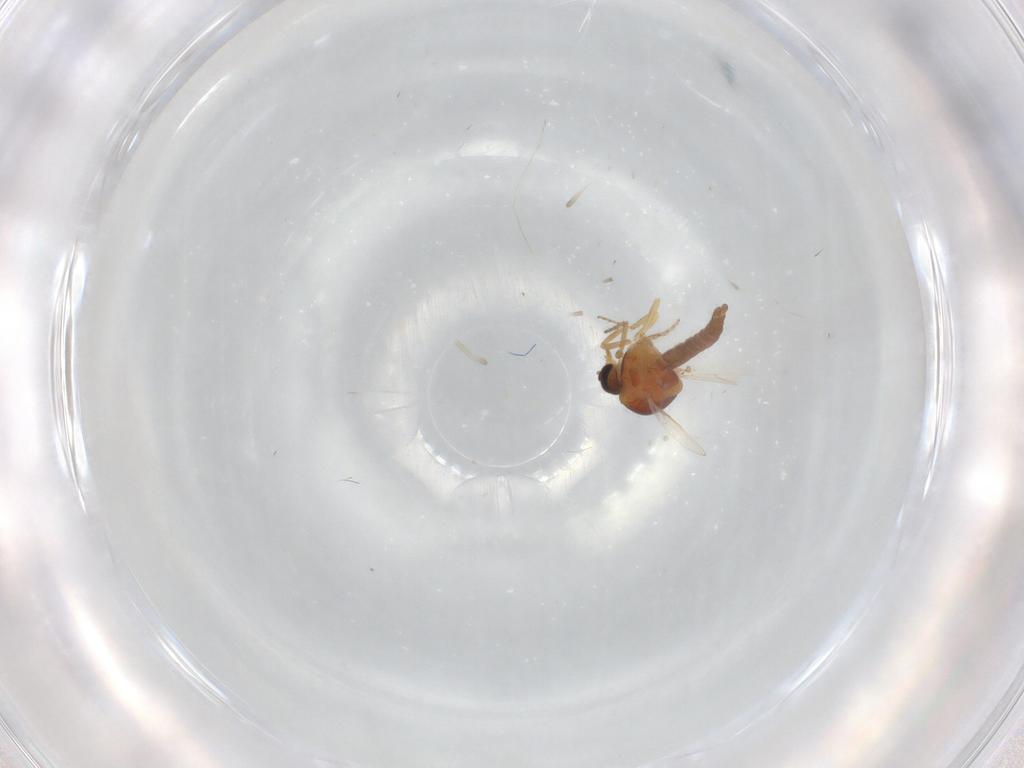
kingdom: Animalia
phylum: Arthropoda
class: Insecta
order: Diptera
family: Ceratopogonidae
